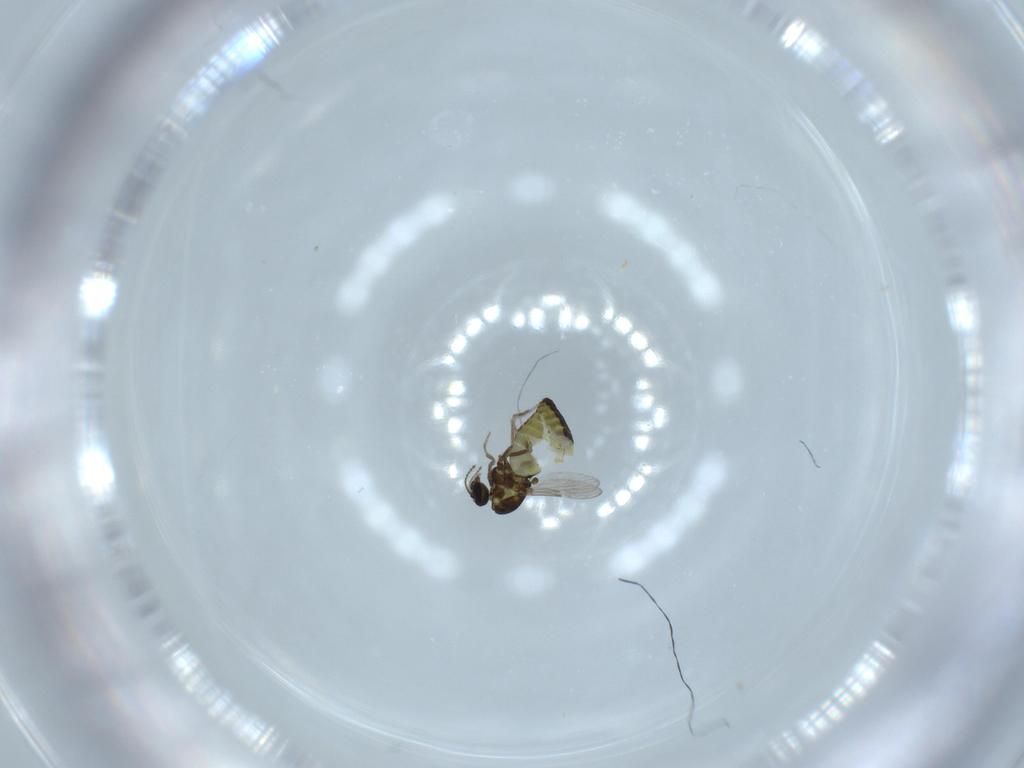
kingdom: Animalia
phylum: Arthropoda
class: Insecta
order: Diptera
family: Ceratopogonidae
